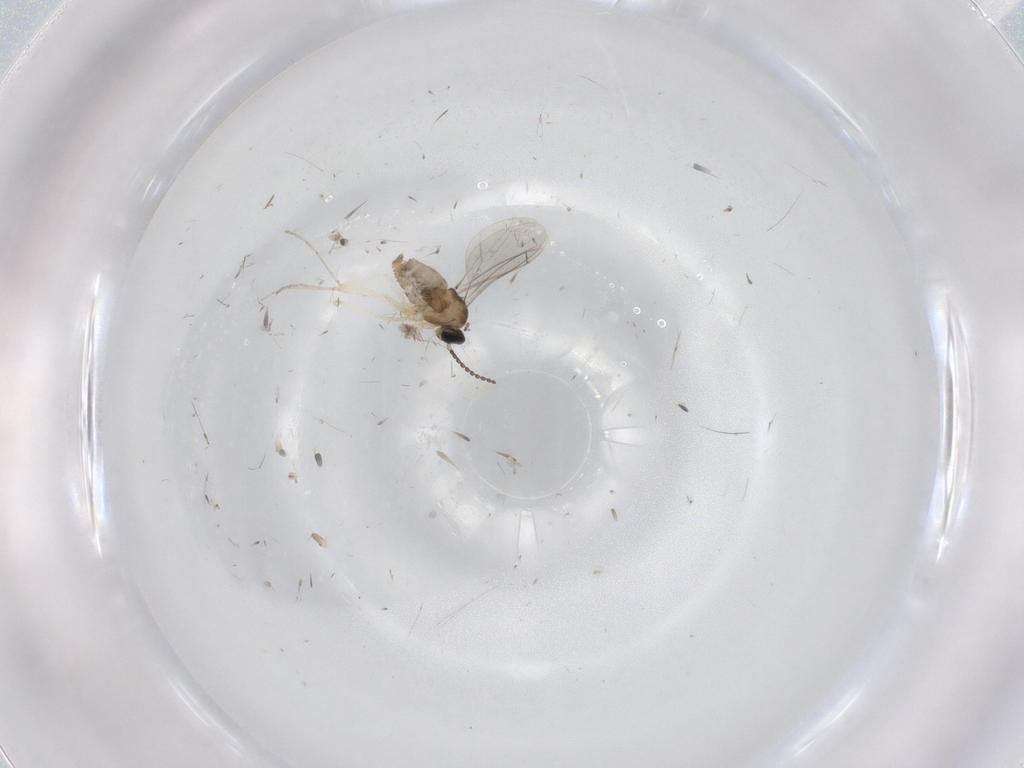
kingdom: Animalia
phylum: Arthropoda
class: Insecta
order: Diptera
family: Cecidomyiidae
